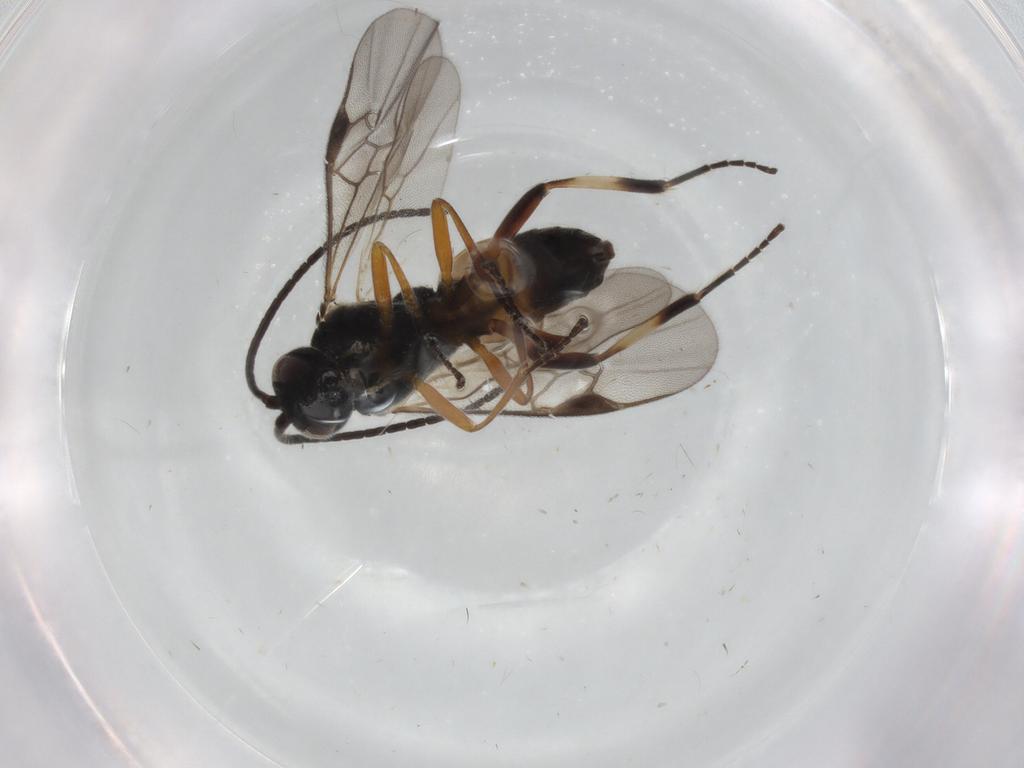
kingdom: Animalia
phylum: Arthropoda
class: Insecta
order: Hymenoptera
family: Braconidae
